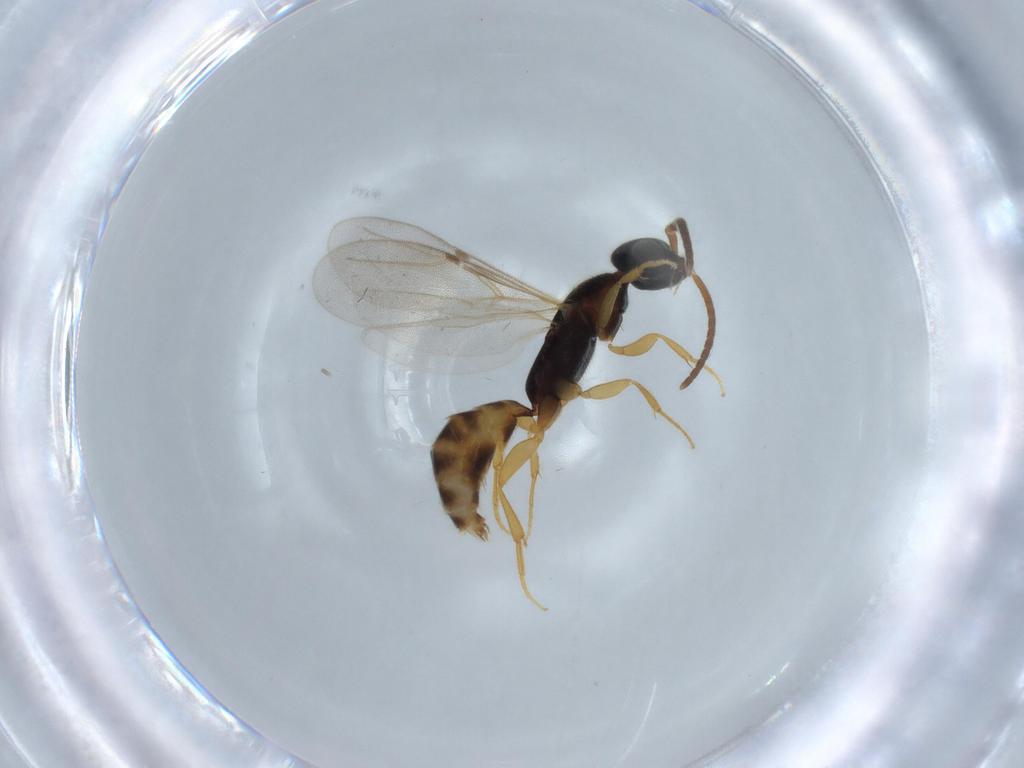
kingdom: Animalia
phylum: Arthropoda
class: Insecta
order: Hymenoptera
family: Bethylidae
